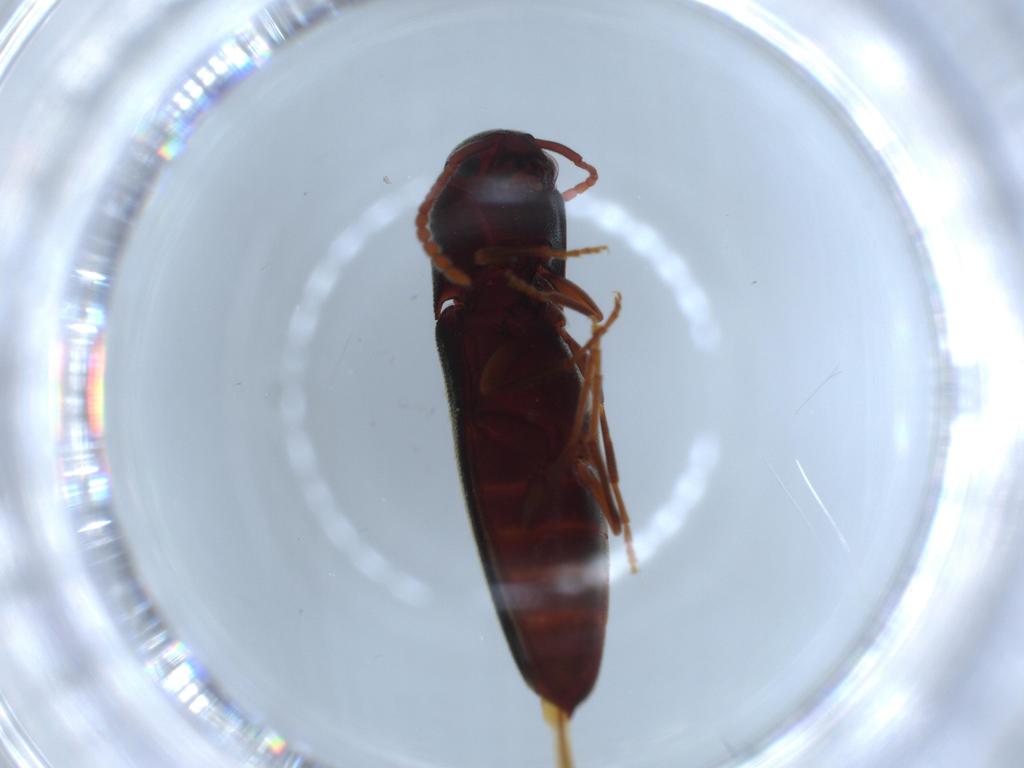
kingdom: Animalia
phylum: Arthropoda
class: Insecta
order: Coleoptera
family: Eucnemidae
